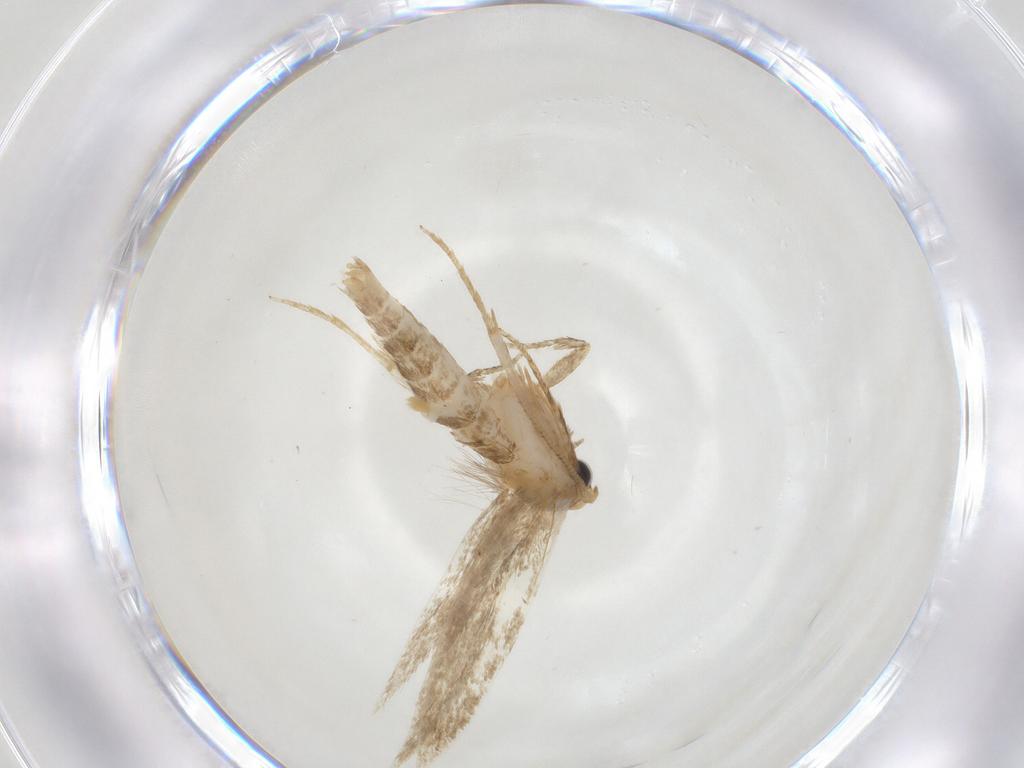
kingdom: Animalia
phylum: Arthropoda
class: Insecta
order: Lepidoptera
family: Tineidae
